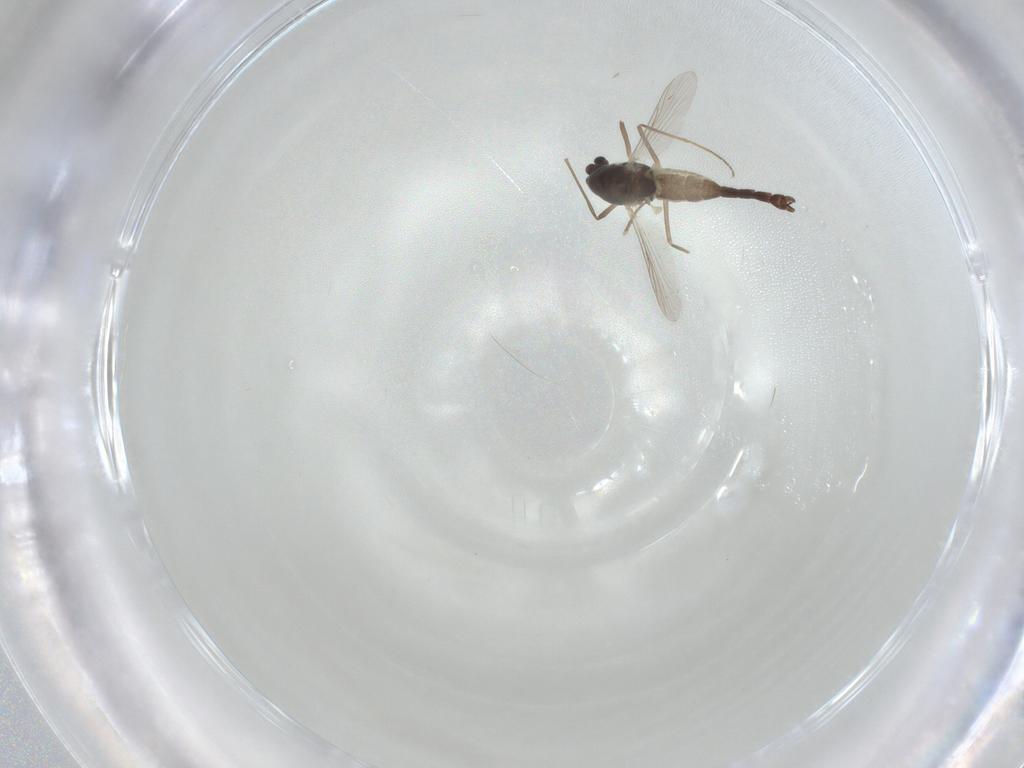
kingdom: Animalia
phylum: Arthropoda
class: Insecta
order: Diptera
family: Chironomidae
